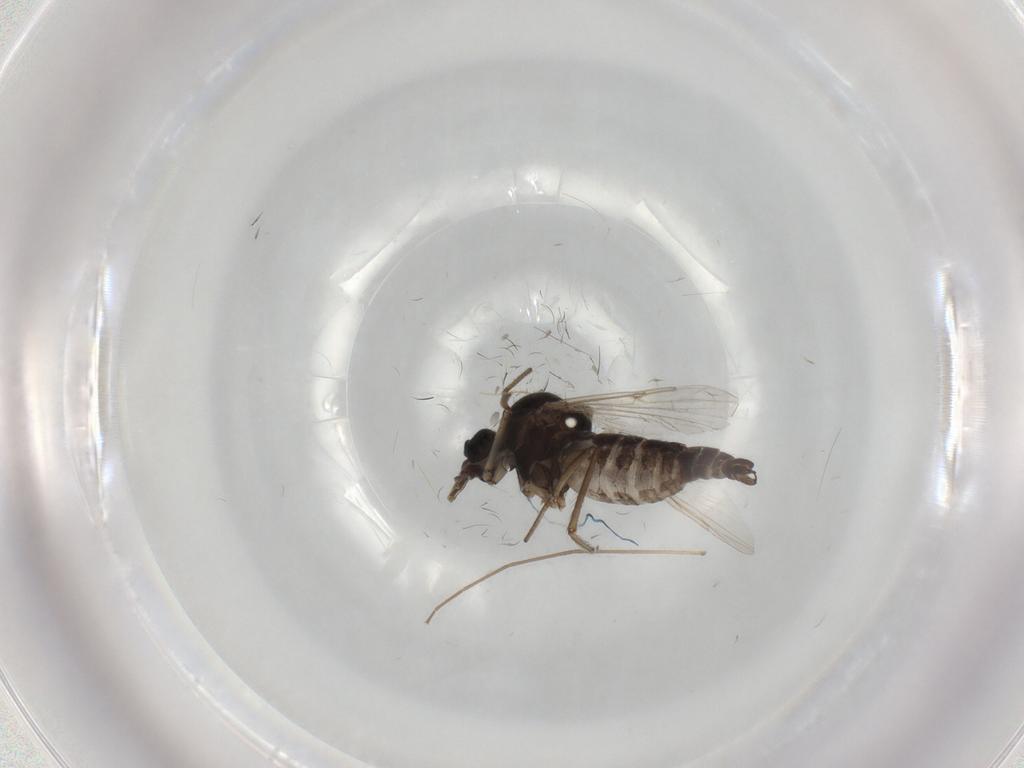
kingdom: Animalia
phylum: Arthropoda
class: Insecta
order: Diptera
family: Ceratopogonidae
